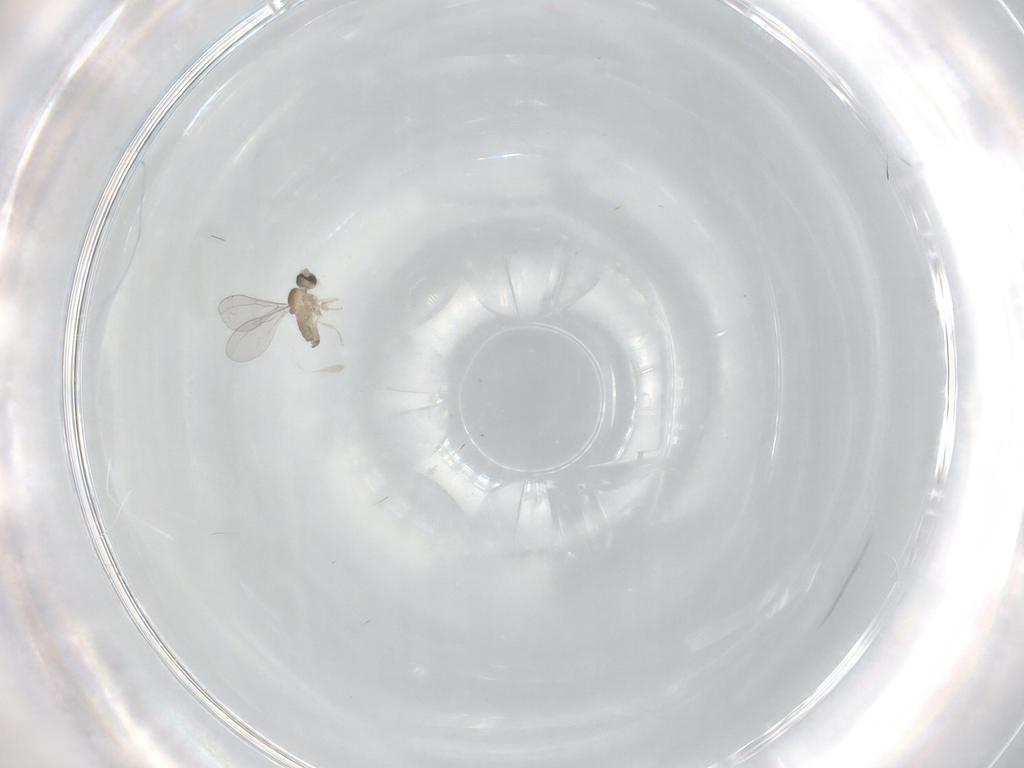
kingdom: Animalia
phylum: Arthropoda
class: Insecta
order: Diptera
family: Cecidomyiidae
